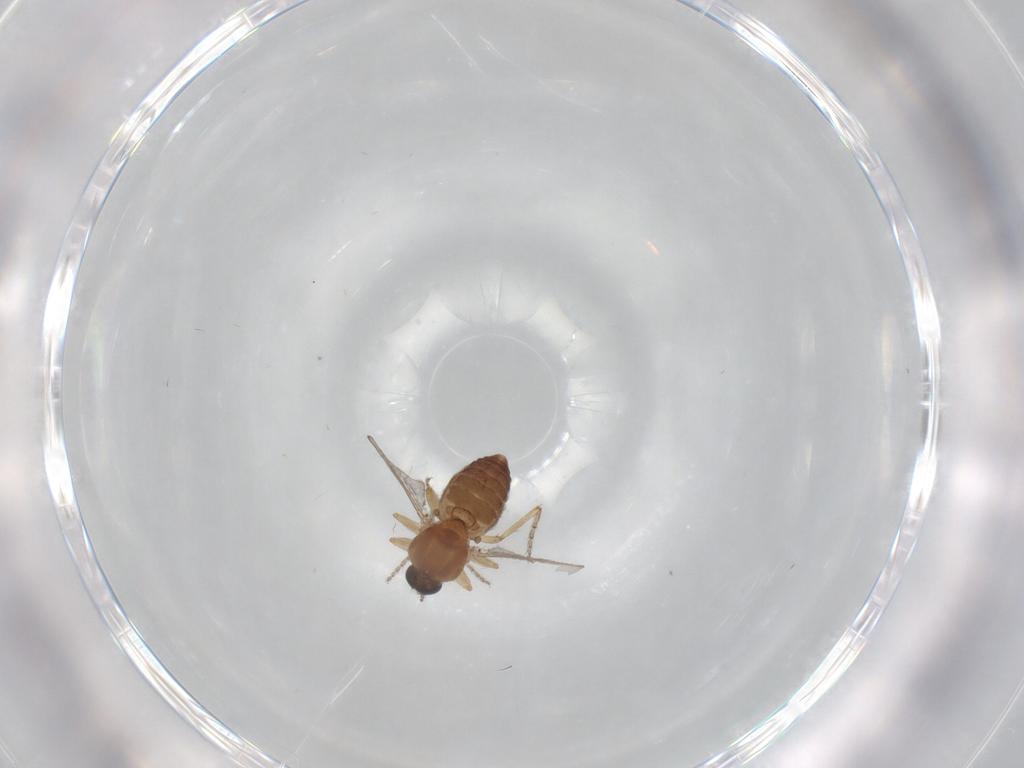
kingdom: Animalia
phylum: Arthropoda
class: Insecta
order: Diptera
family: Ceratopogonidae
